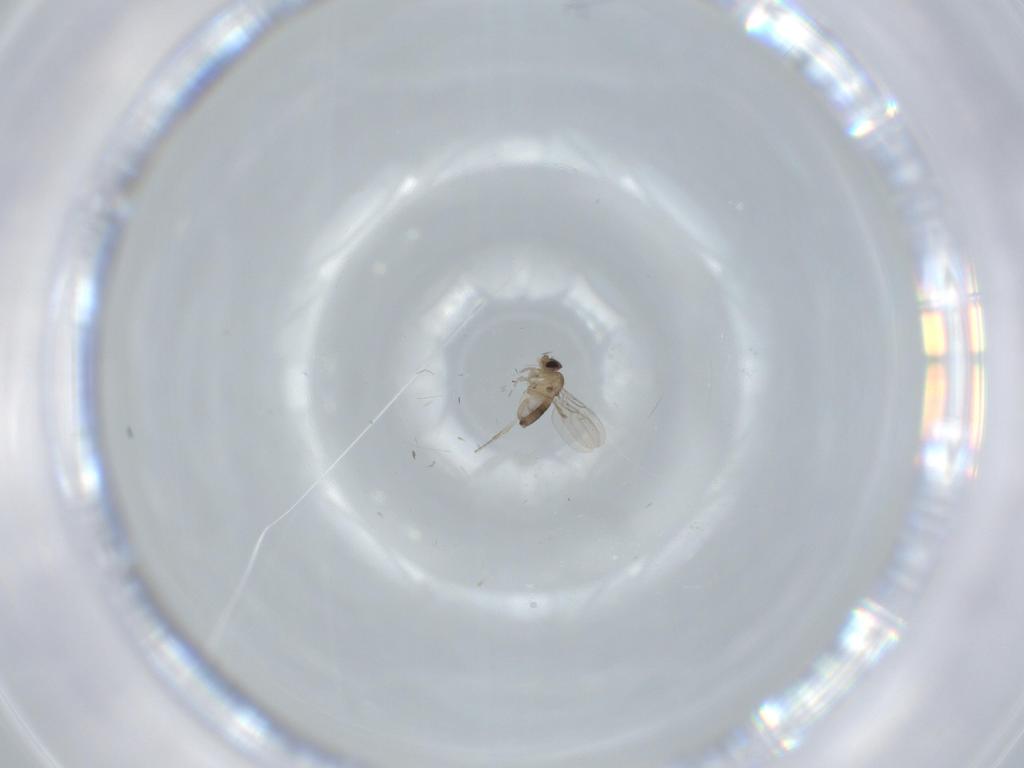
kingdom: Animalia
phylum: Arthropoda
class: Insecta
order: Diptera
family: Phoridae
